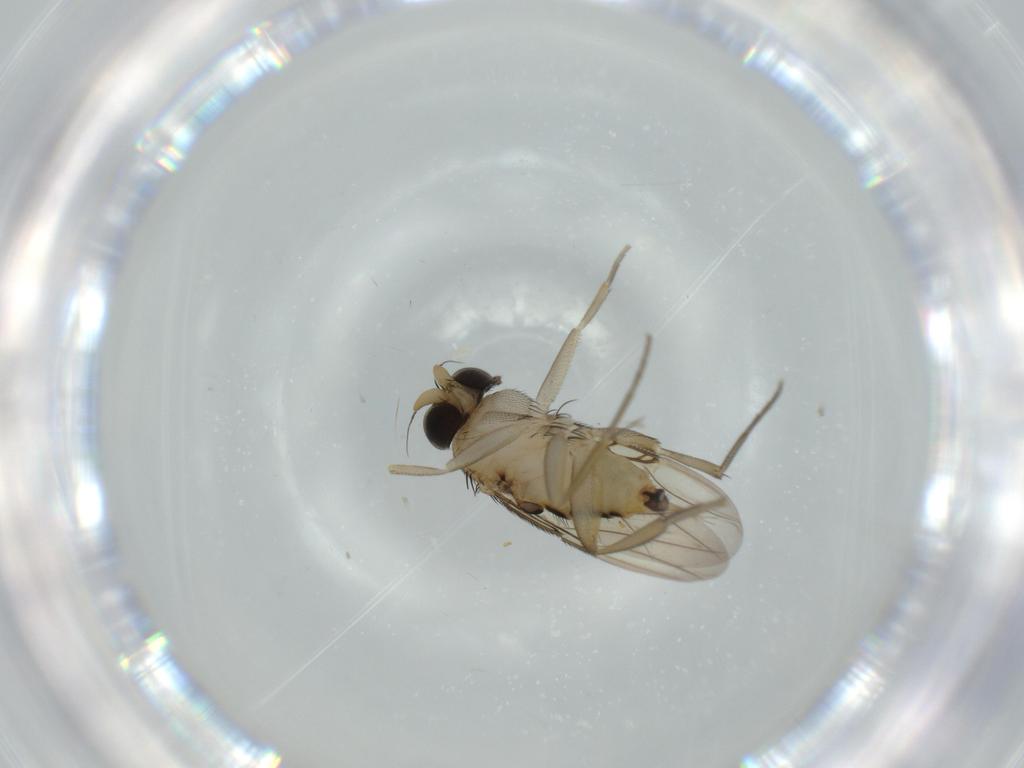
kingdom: Animalia
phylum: Arthropoda
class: Insecta
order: Diptera
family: Phoridae
